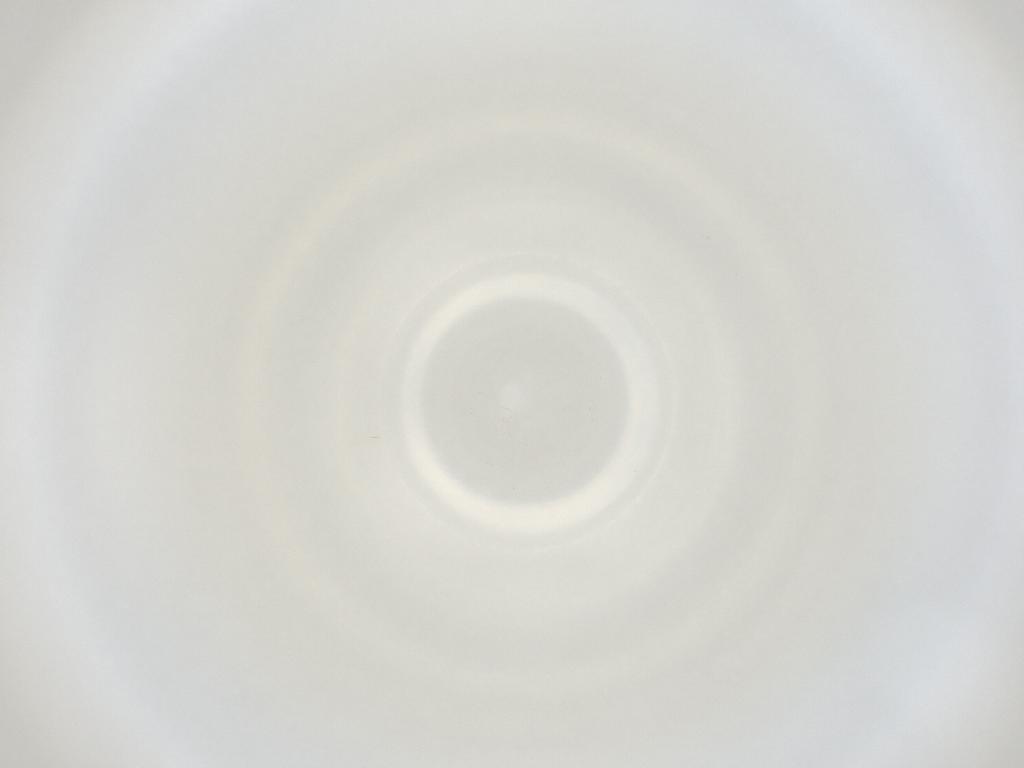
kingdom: Animalia
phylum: Arthropoda
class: Insecta
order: Diptera
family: Cecidomyiidae
